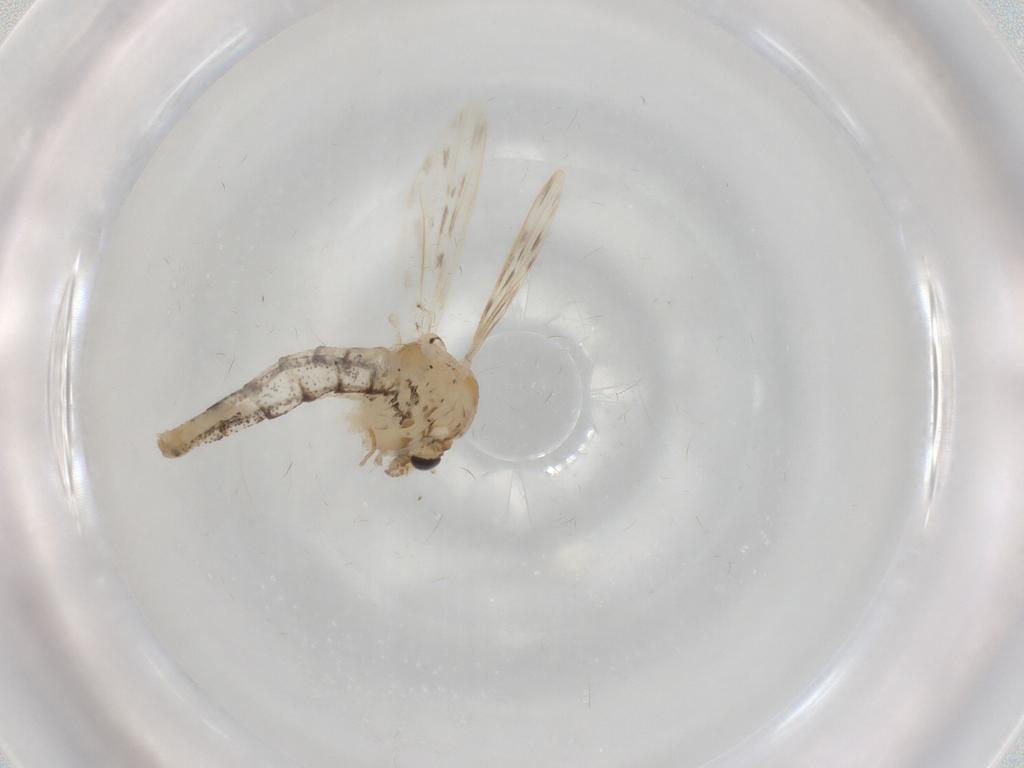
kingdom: Animalia
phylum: Arthropoda
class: Insecta
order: Diptera
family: Chaoboridae
